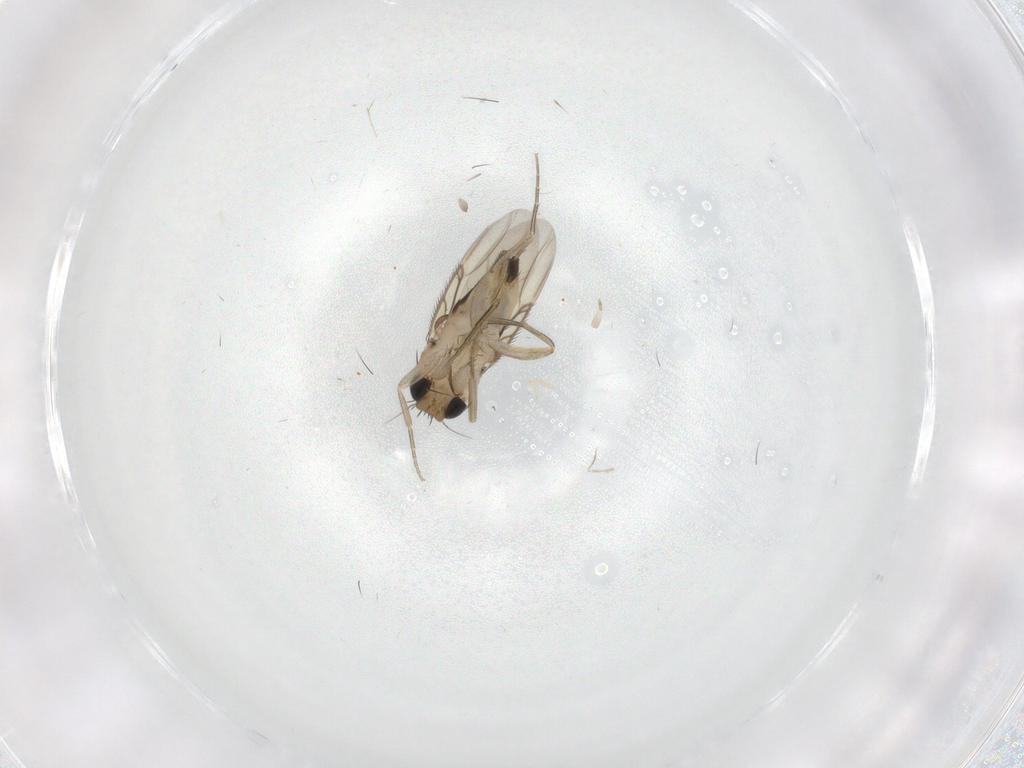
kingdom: Animalia
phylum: Arthropoda
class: Insecta
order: Diptera
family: Phoridae
